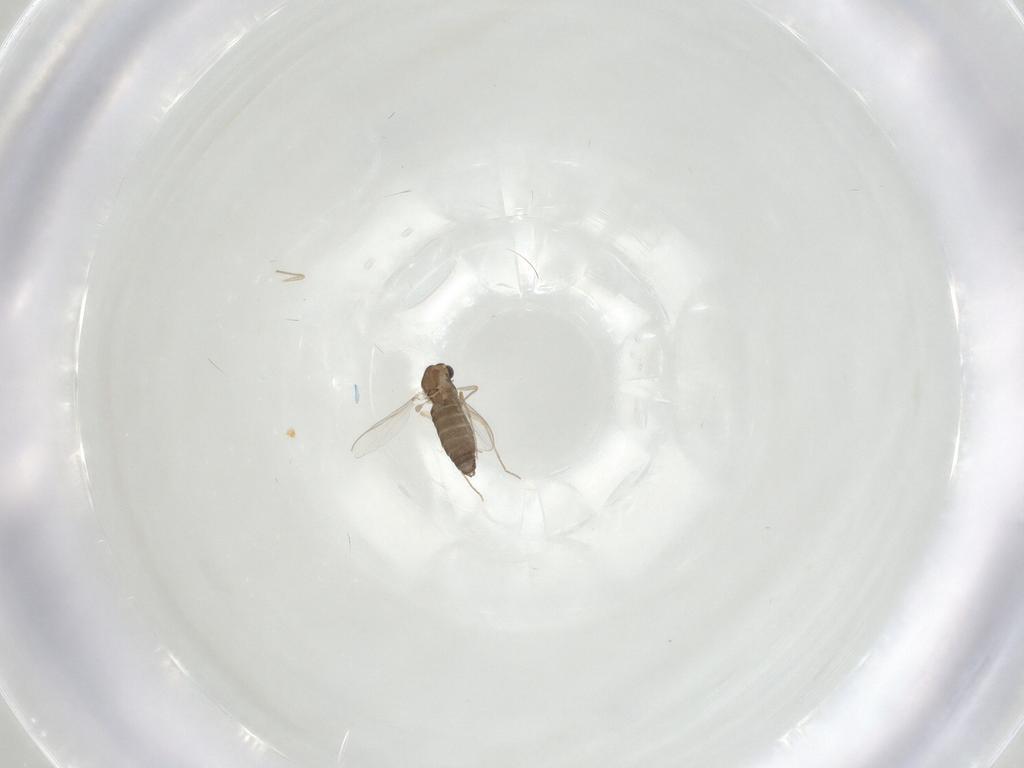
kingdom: Animalia
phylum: Arthropoda
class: Insecta
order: Diptera
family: Chironomidae
